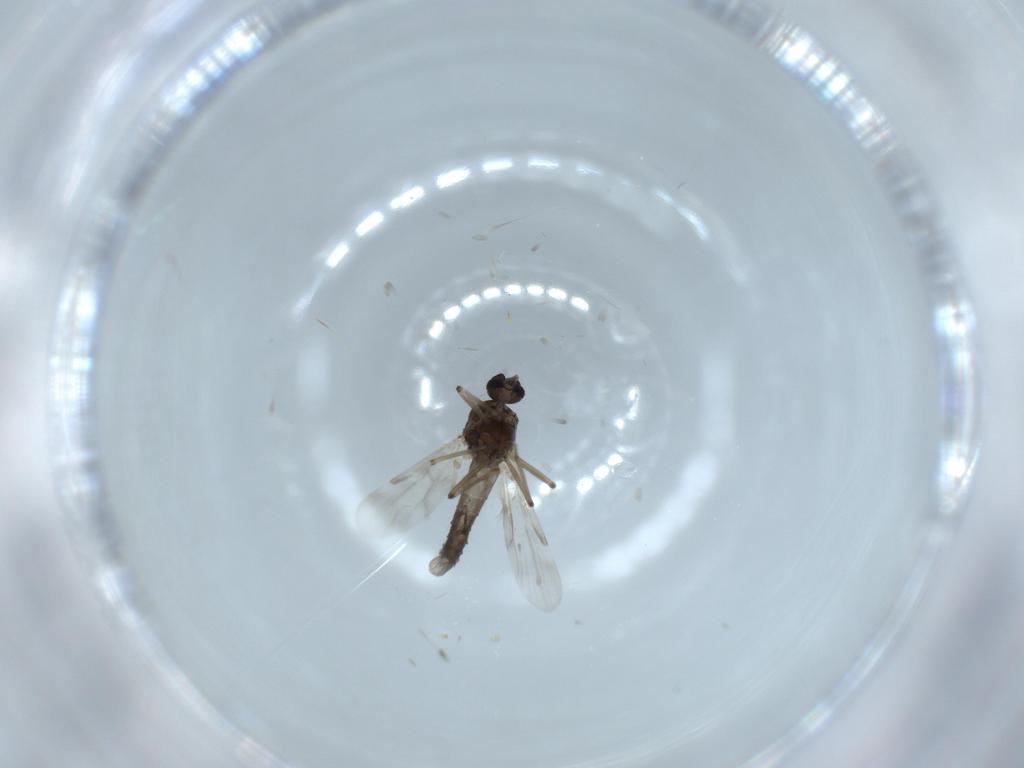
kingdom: Animalia
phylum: Arthropoda
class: Insecta
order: Diptera
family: Ceratopogonidae
